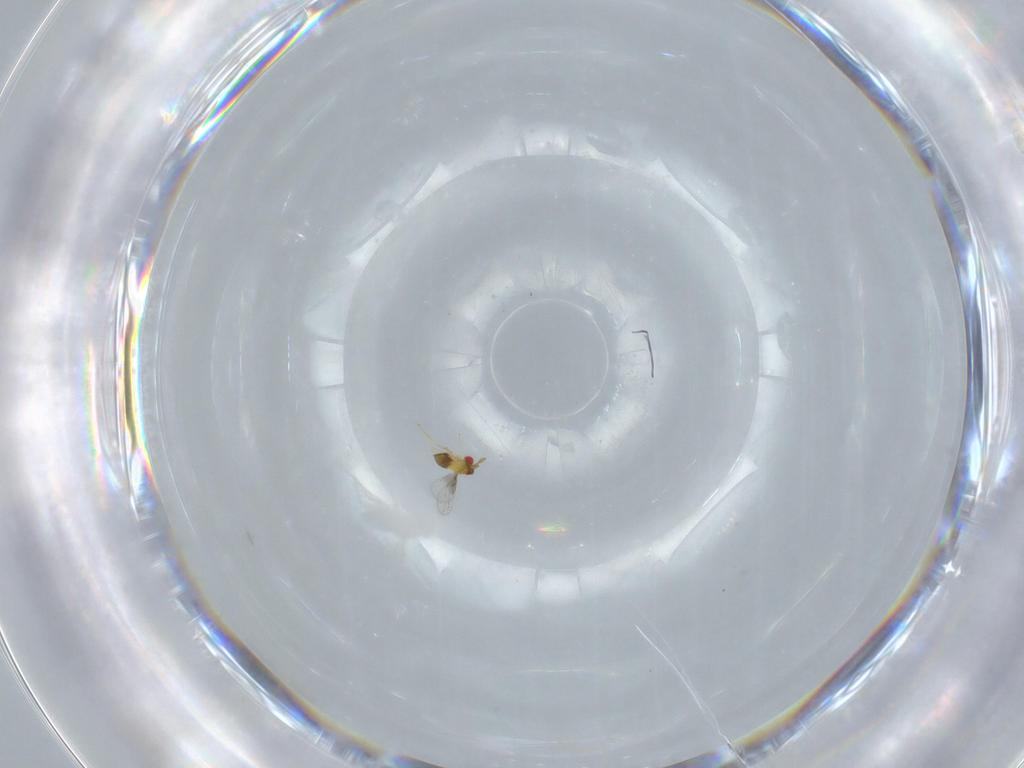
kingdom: Animalia
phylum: Arthropoda
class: Insecta
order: Hymenoptera
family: Trichogrammatidae
